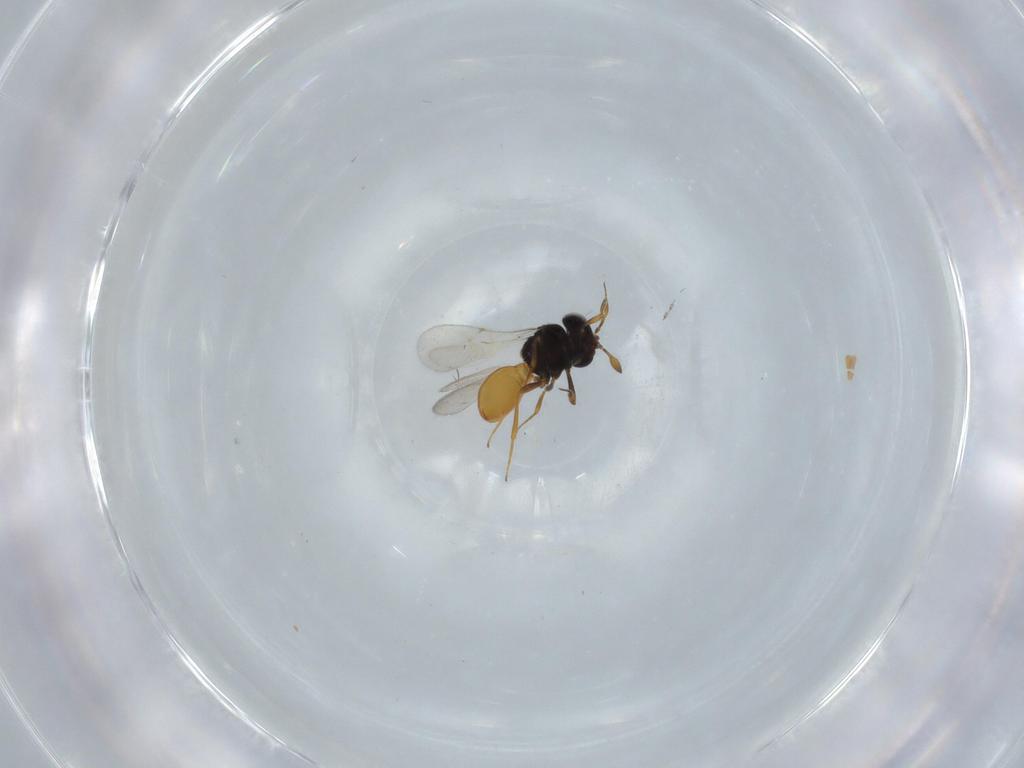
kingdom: Animalia
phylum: Arthropoda
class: Insecta
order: Hymenoptera
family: Scelionidae
